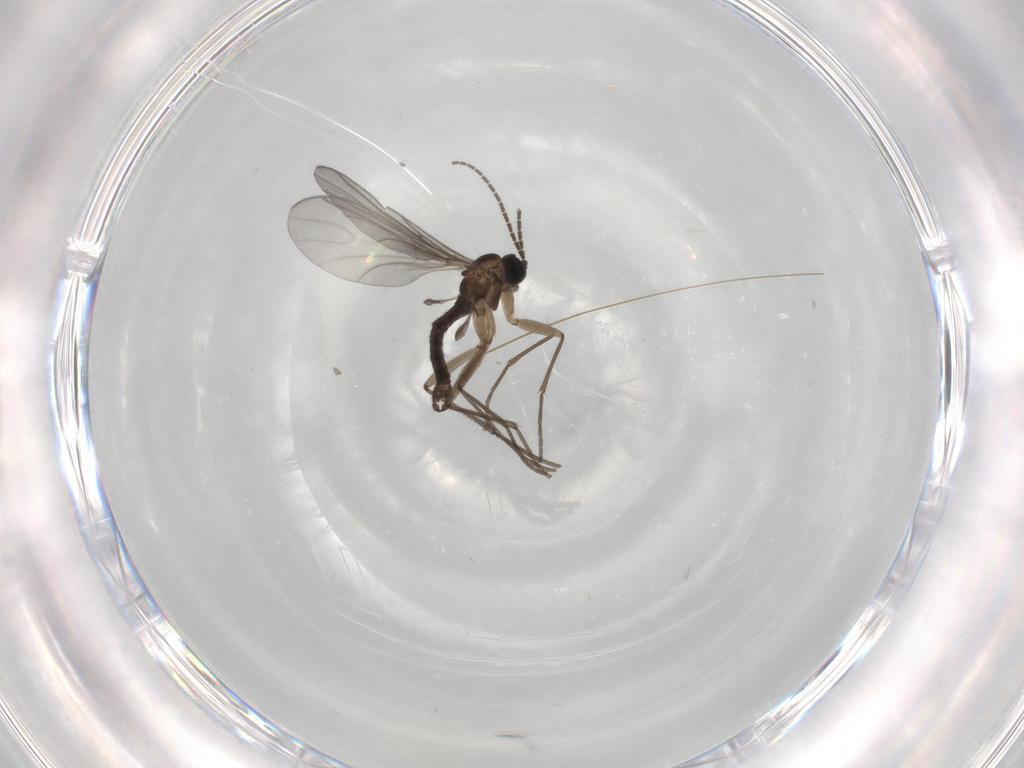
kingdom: Animalia
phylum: Arthropoda
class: Insecta
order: Diptera
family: Sciaridae
